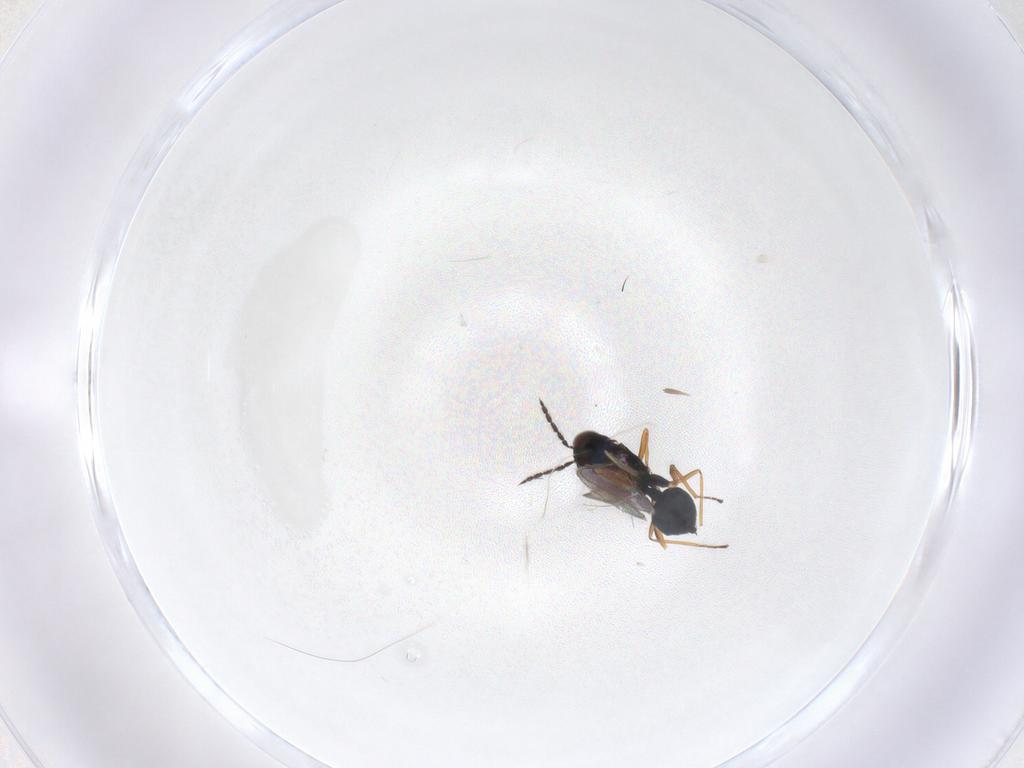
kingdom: Animalia
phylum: Arthropoda
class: Insecta
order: Hymenoptera
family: Eulophidae
